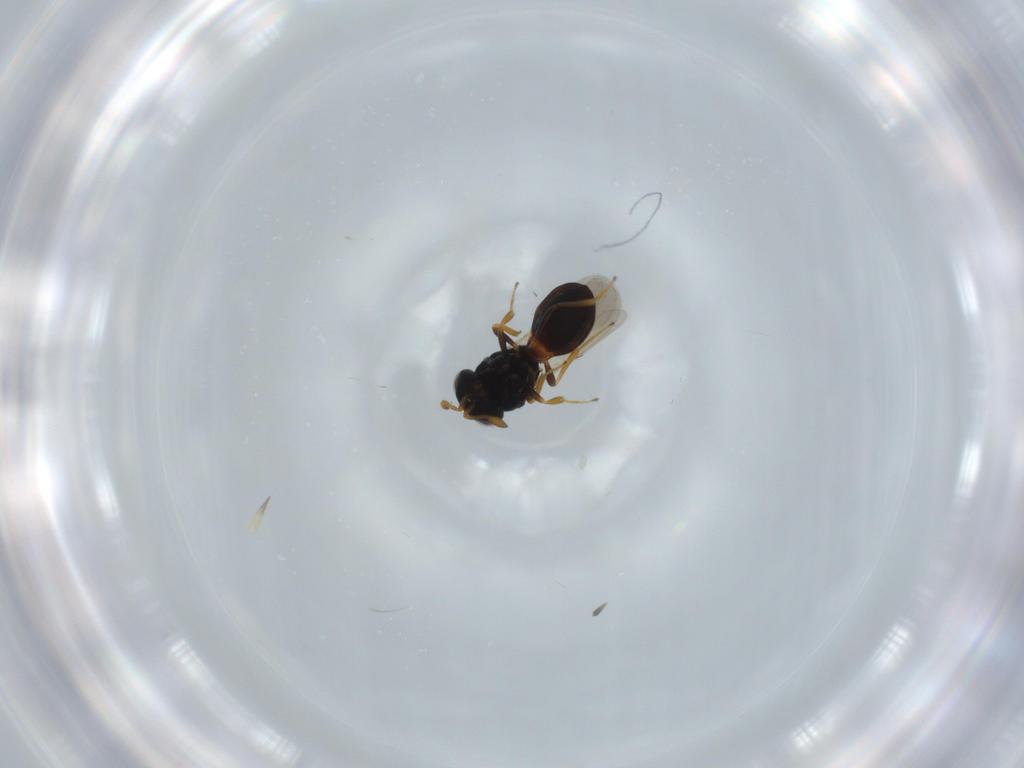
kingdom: Animalia
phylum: Arthropoda
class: Insecta
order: Hymenoptera
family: Scelionidae
